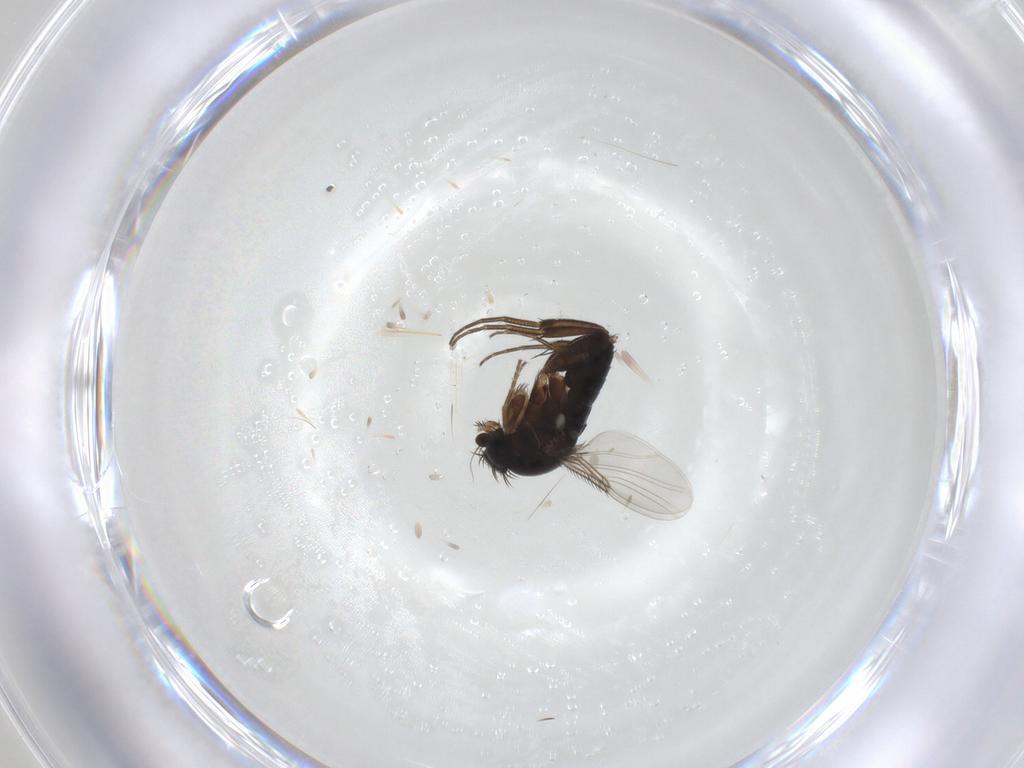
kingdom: Animalia
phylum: Arthropoda
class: Insecta
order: Diptera
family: Phoridae
